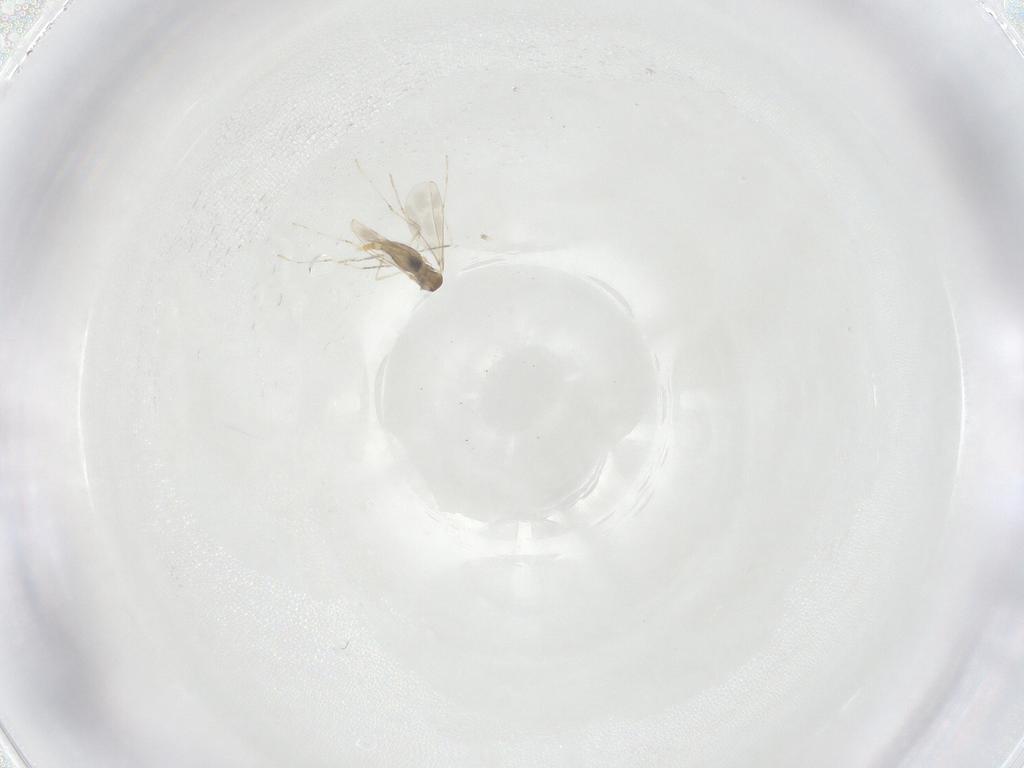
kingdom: Animalia
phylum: Arthropoda
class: Insecta
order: Diptera
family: Cecidomyiidae
